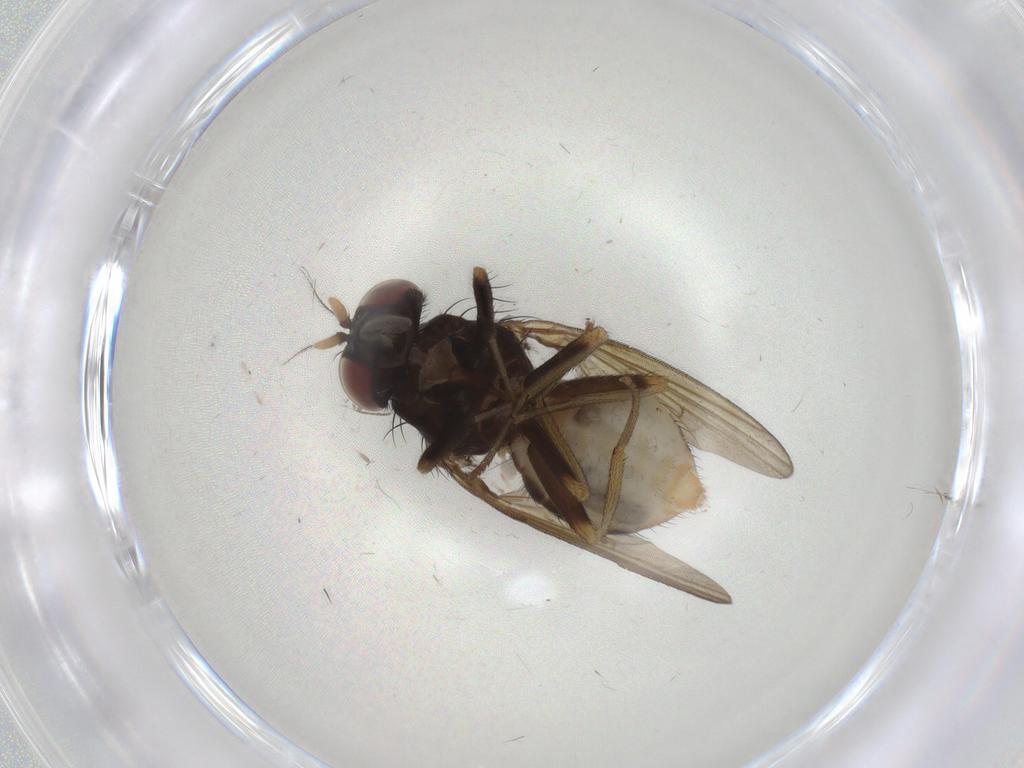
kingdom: Animalia
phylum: Arthropoda
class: Insecta
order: Diptera
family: Lauxaniidae
